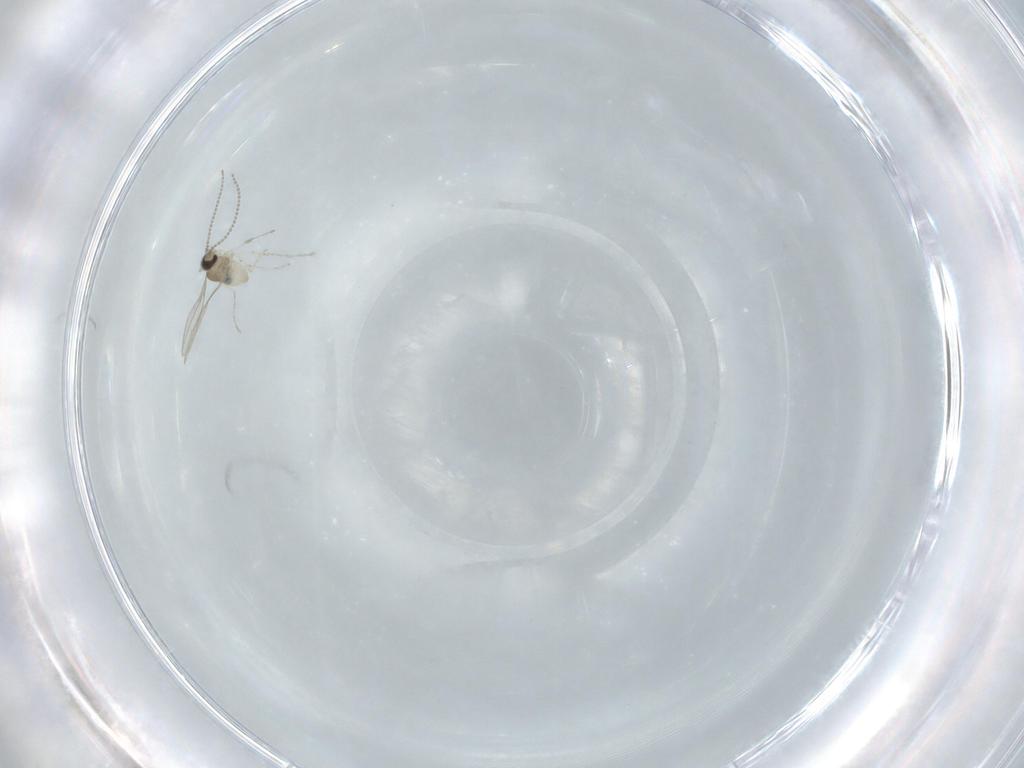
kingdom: Animalia
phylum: Arthropoda
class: Insecta
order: Diptera
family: Cecidomyiidae
